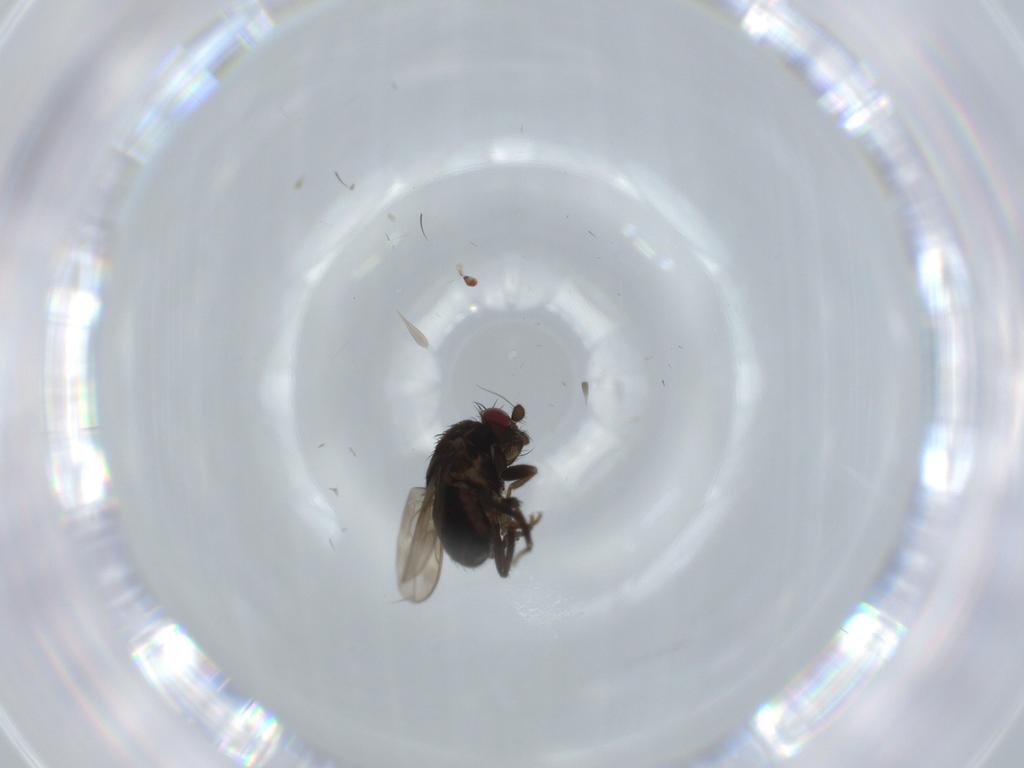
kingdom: Animalia
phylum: Arthropoda
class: Insecta
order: Diptera
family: Sphaeroceridae
